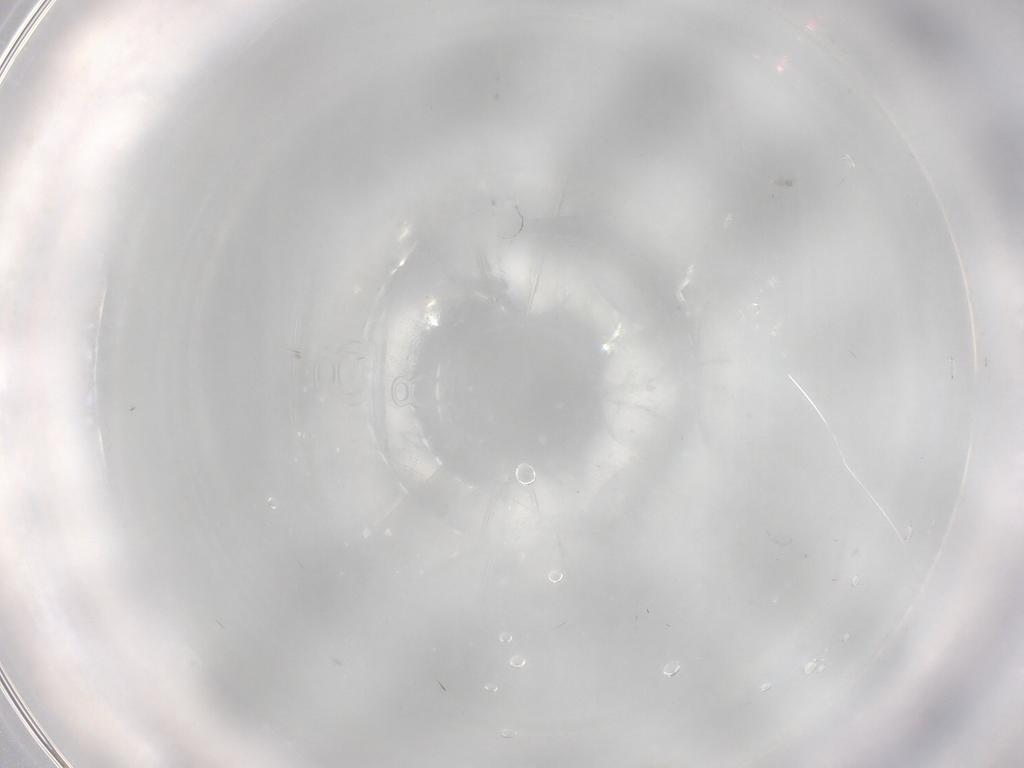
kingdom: Animalia
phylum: Arthropoda
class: Insecta
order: Diptera
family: Cecidomyiidae
